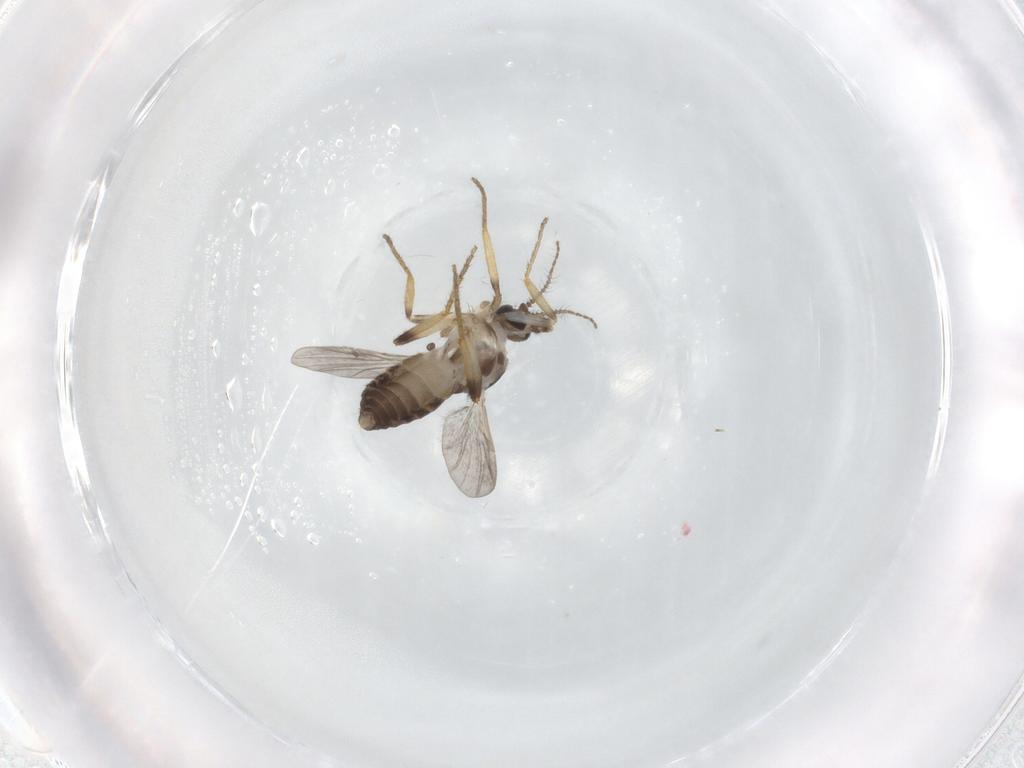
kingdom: Animalia
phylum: Arthropoda
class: Insecta
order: Diptera
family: Ceratopogonidae
